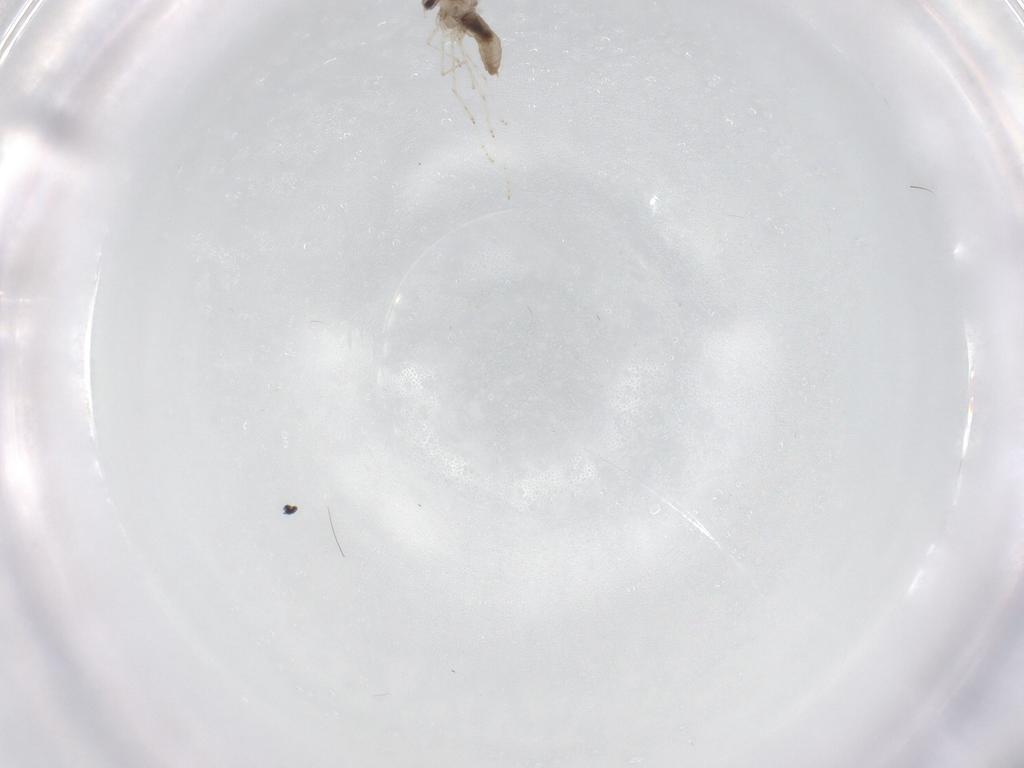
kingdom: Animalia
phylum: Arthropoda
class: Insecta
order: Diptera
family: Cecidomyiidae
